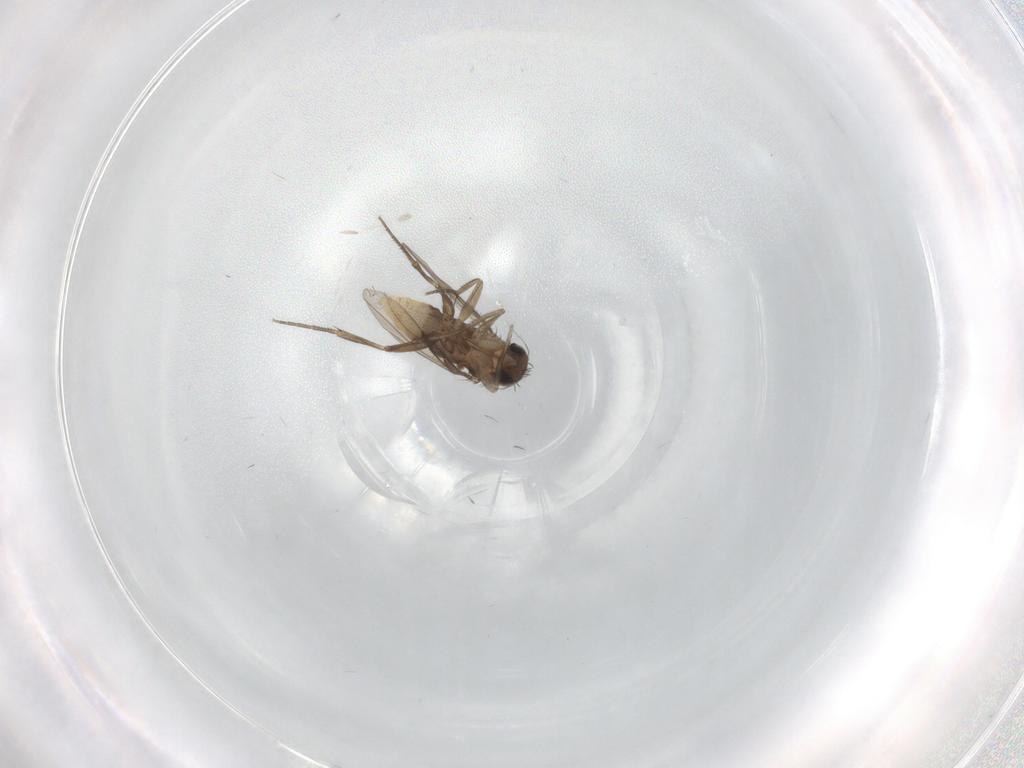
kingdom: Animalia
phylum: Arthropoda
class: Insecta
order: Diptera
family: Phoridae
